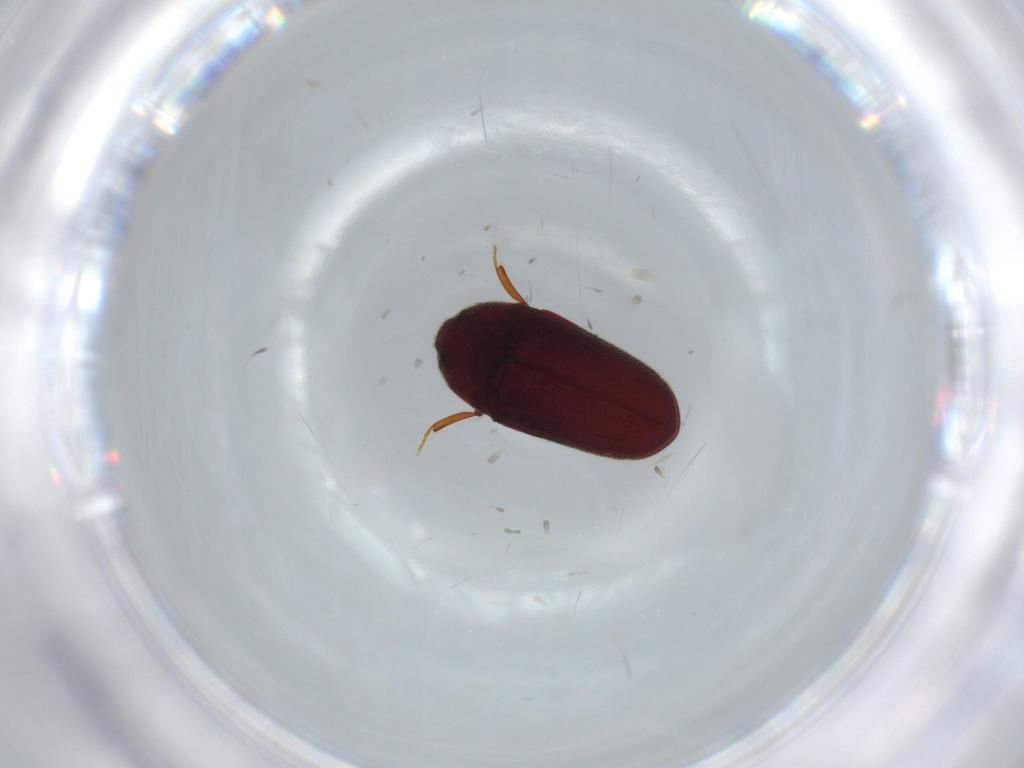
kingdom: Animalia
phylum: Arthropoda
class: Insecta
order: Coleoptera
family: Throscidae
